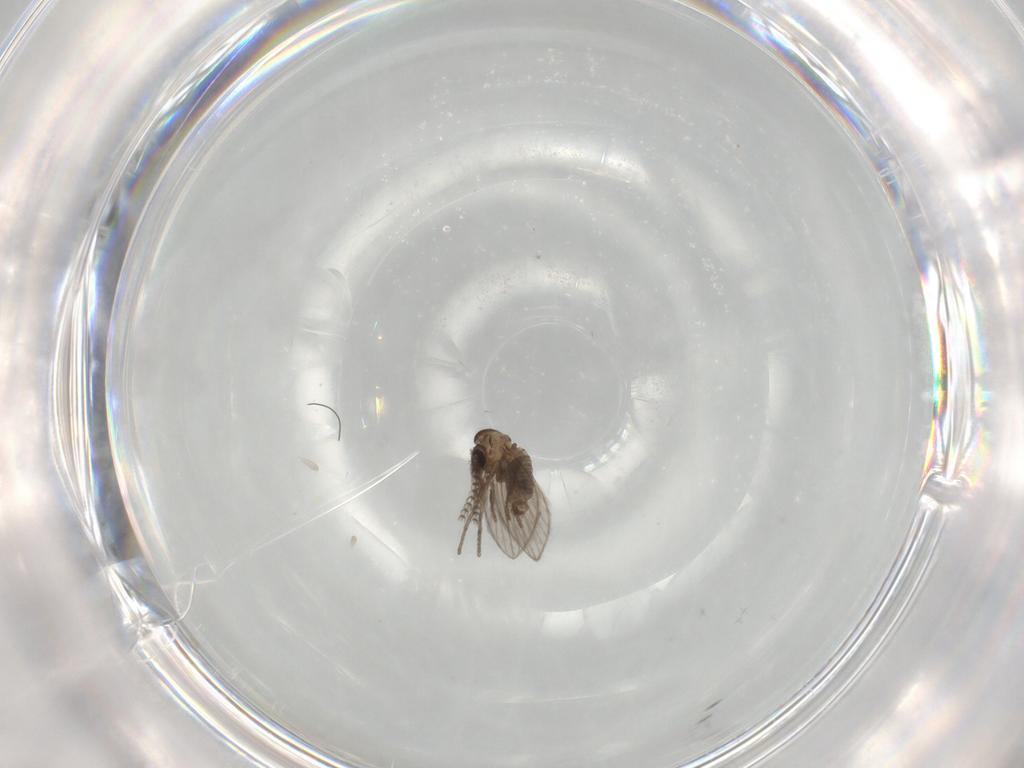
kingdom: Animalia
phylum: Arthropoda
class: Insecta
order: Diptera
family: Psychodidae
